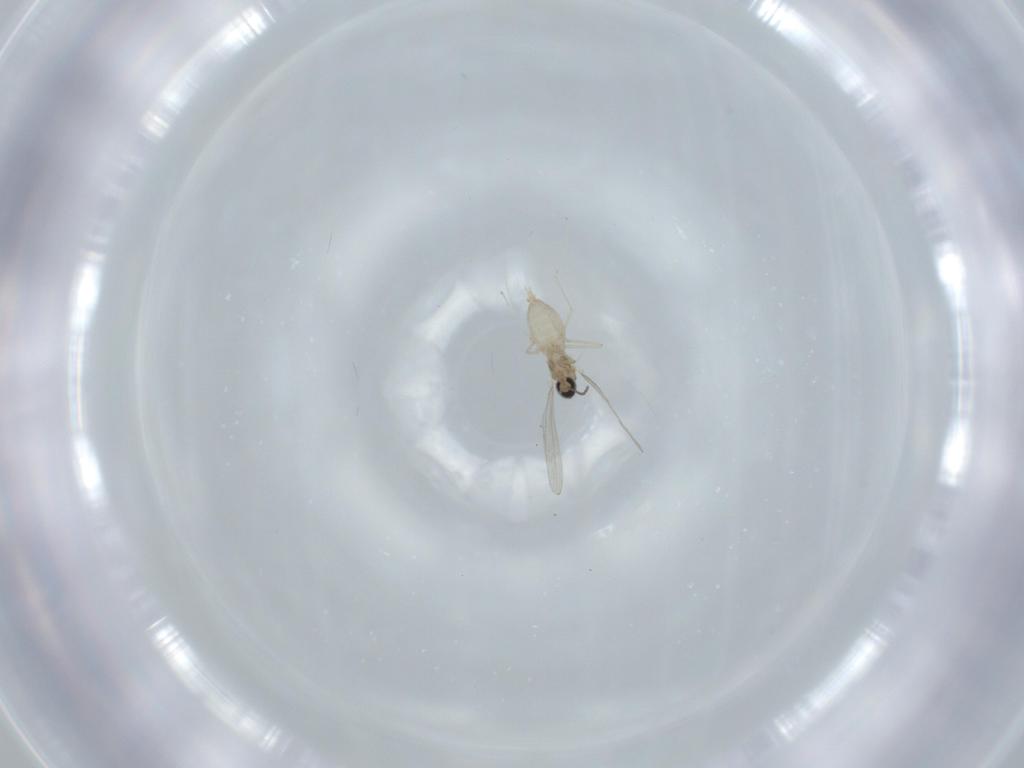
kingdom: Animalia
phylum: Arthropoda
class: Insecta
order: Diptera
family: Cecidomyiidae
